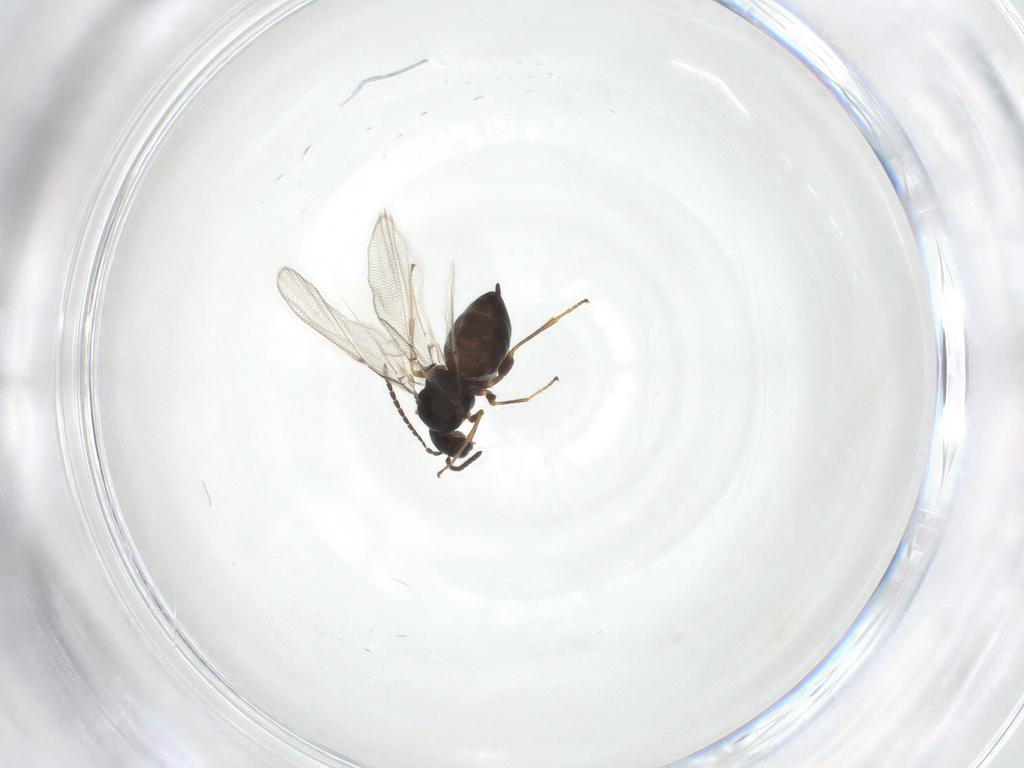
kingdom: Animalia
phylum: Arthropoda
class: Insecta
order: Hymenoptera
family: Cynipidae
